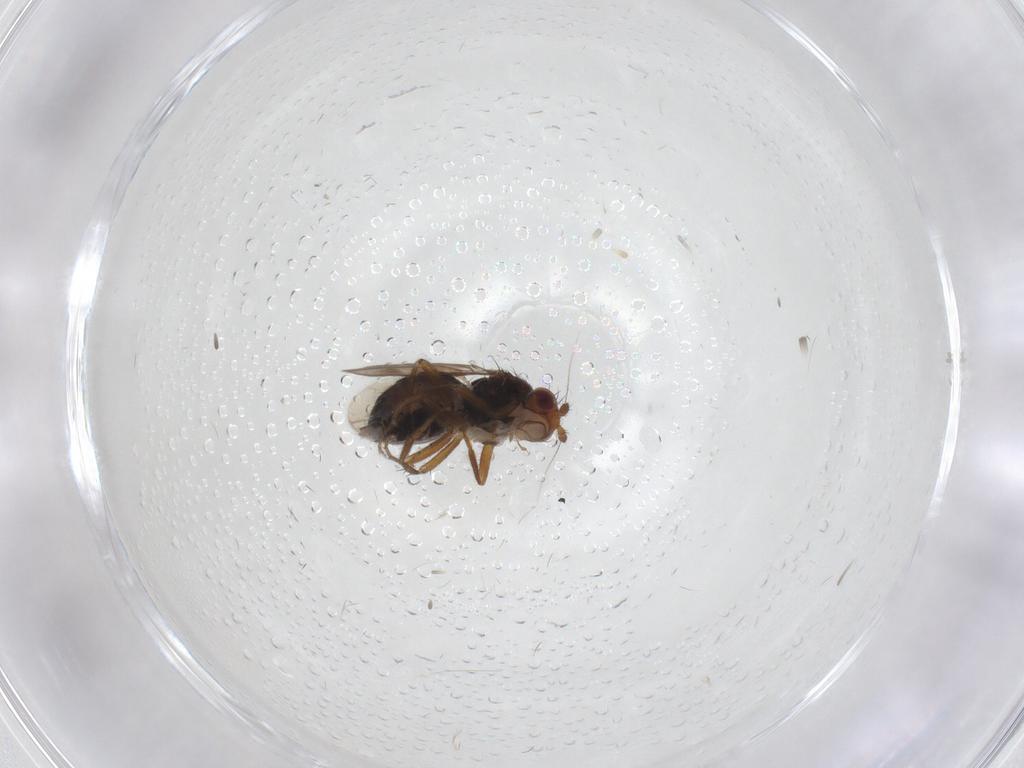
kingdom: Animalia
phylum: Arthropoda
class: Insecta
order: Diptera
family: Sphaeroceridae
